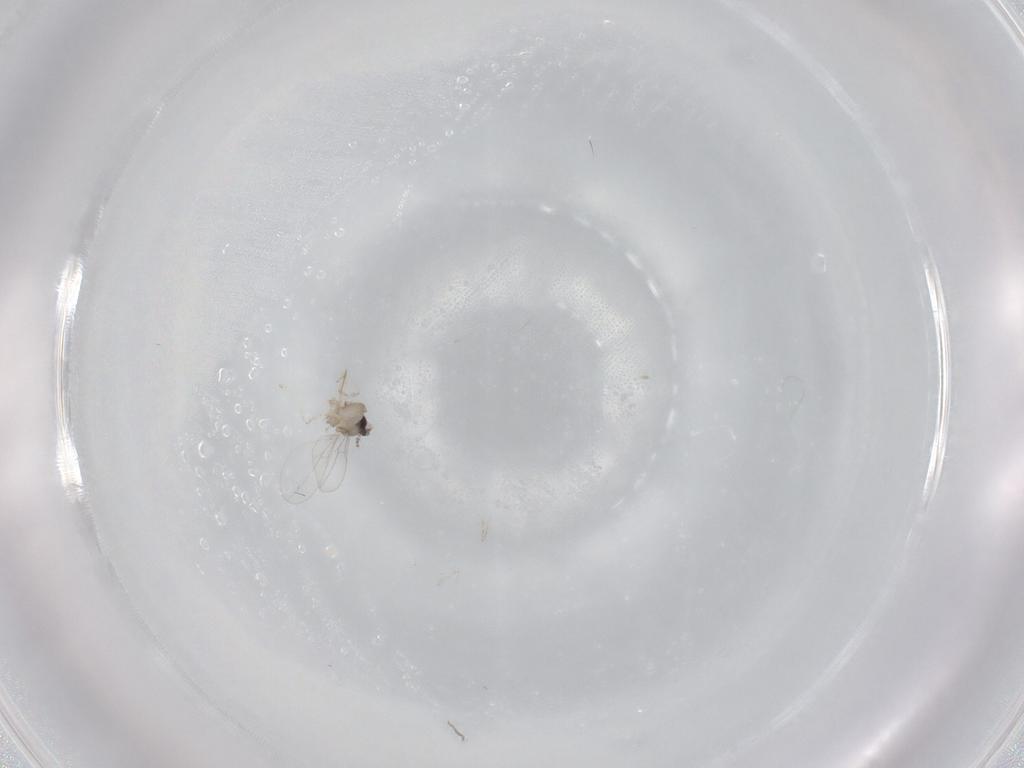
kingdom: Animalia
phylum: Arthropoda
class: Insecta
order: Diptera
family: Cecidomyiidae
